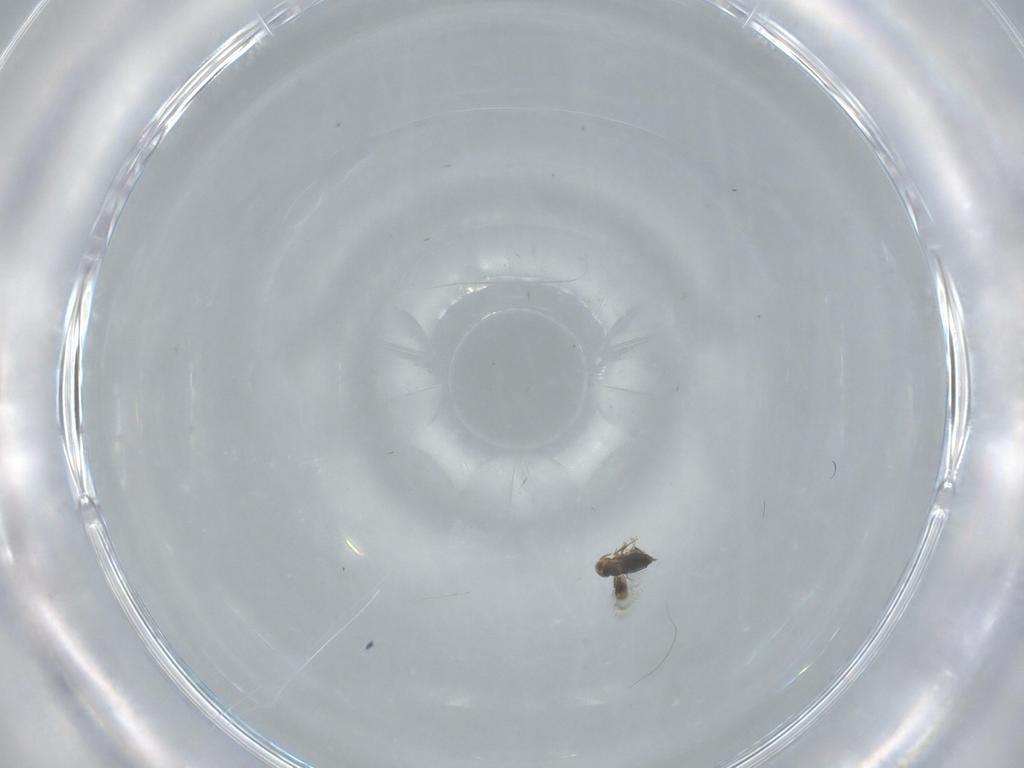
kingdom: Animalia
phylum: Arthropoda
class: Insecta
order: Hymenoptera
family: Signiphoridae
